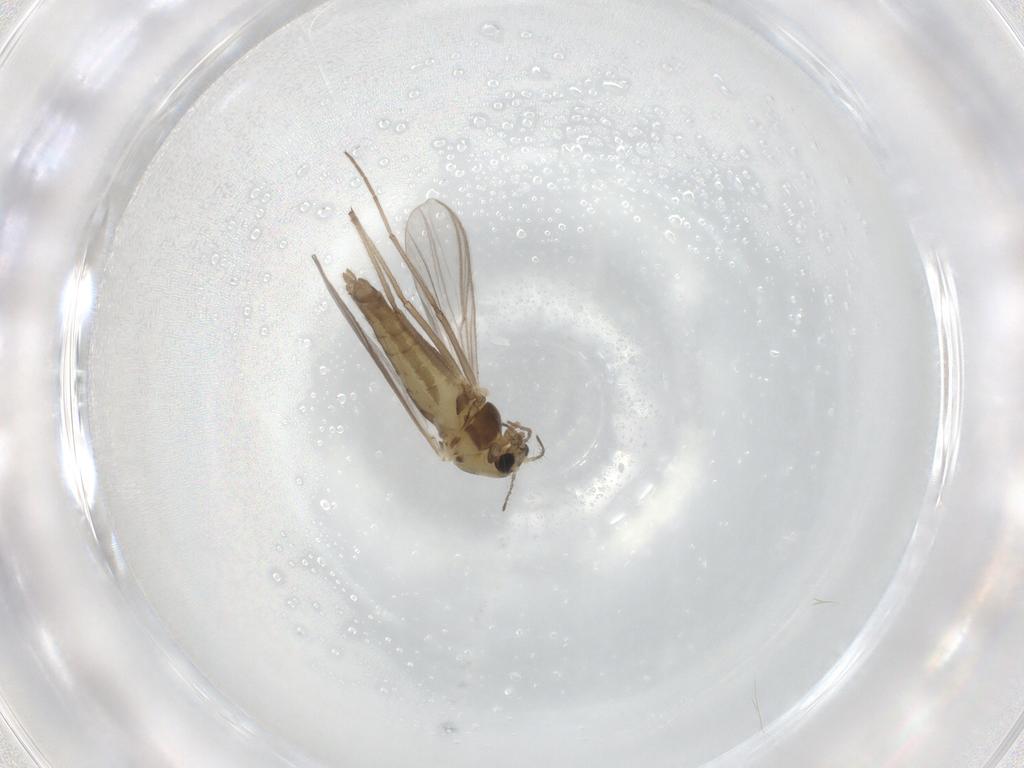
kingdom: Animalia
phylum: Arthropoda
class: Insecta
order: Diptera
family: Chironomidae
